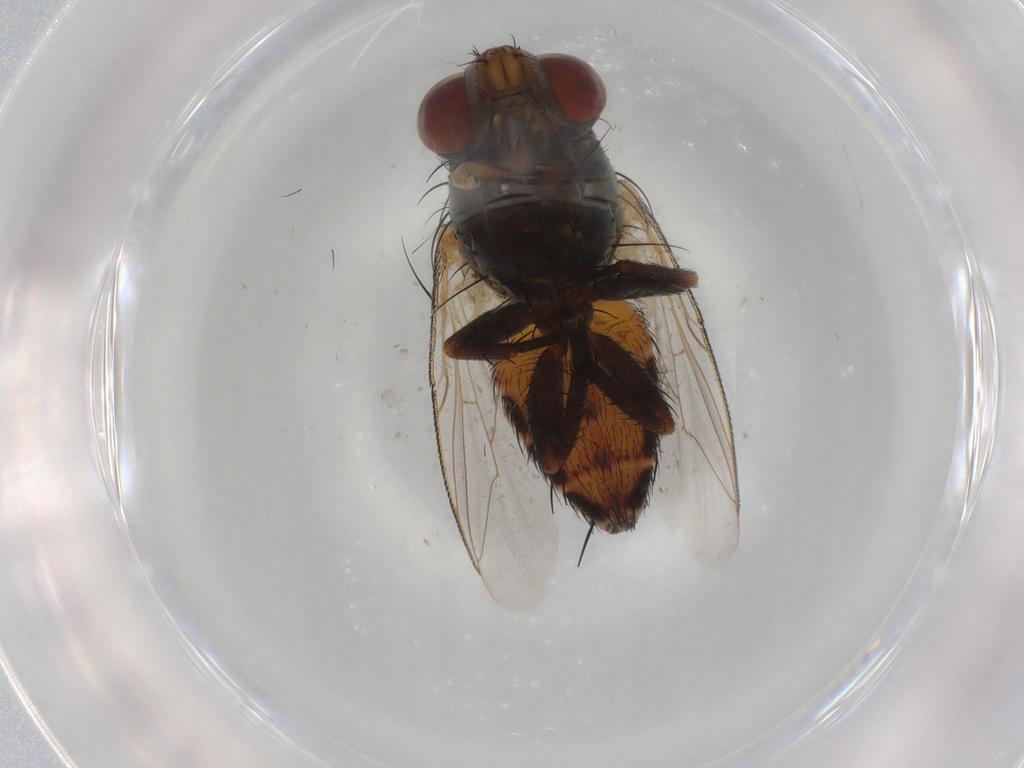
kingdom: Animalia
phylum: Arthropoda
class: Insecta
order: Diptera
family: Sarcophagidae
